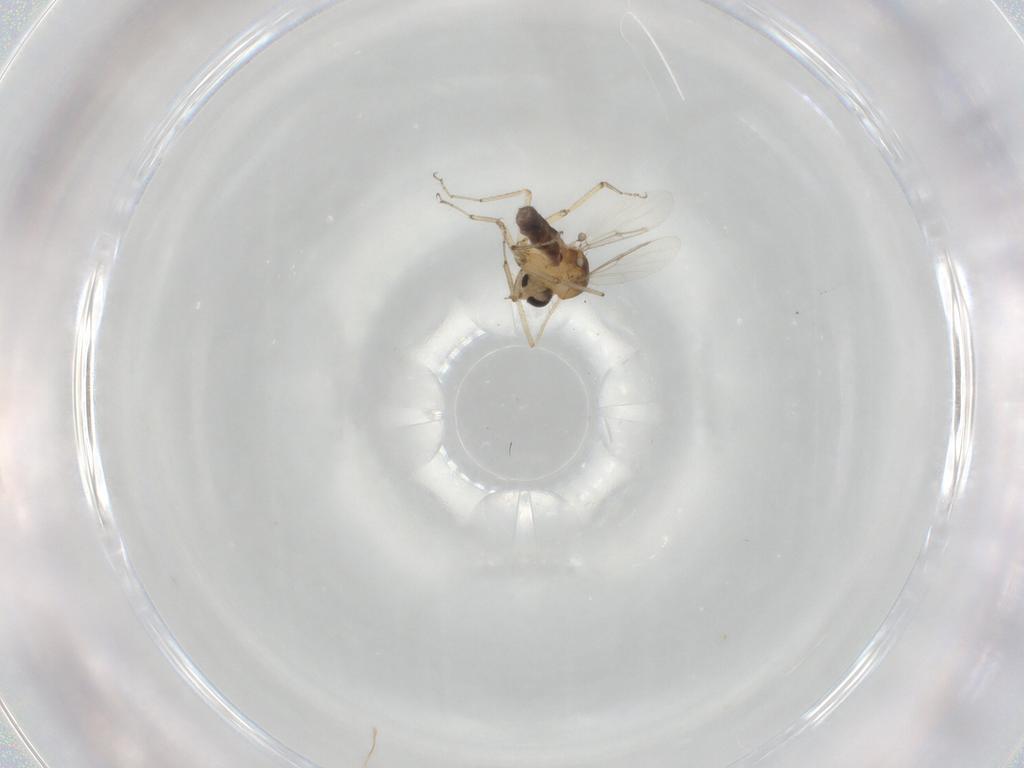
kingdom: Animalia
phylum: Arthropoda
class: Insecta
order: Diptera
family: Ceratopogonidae
